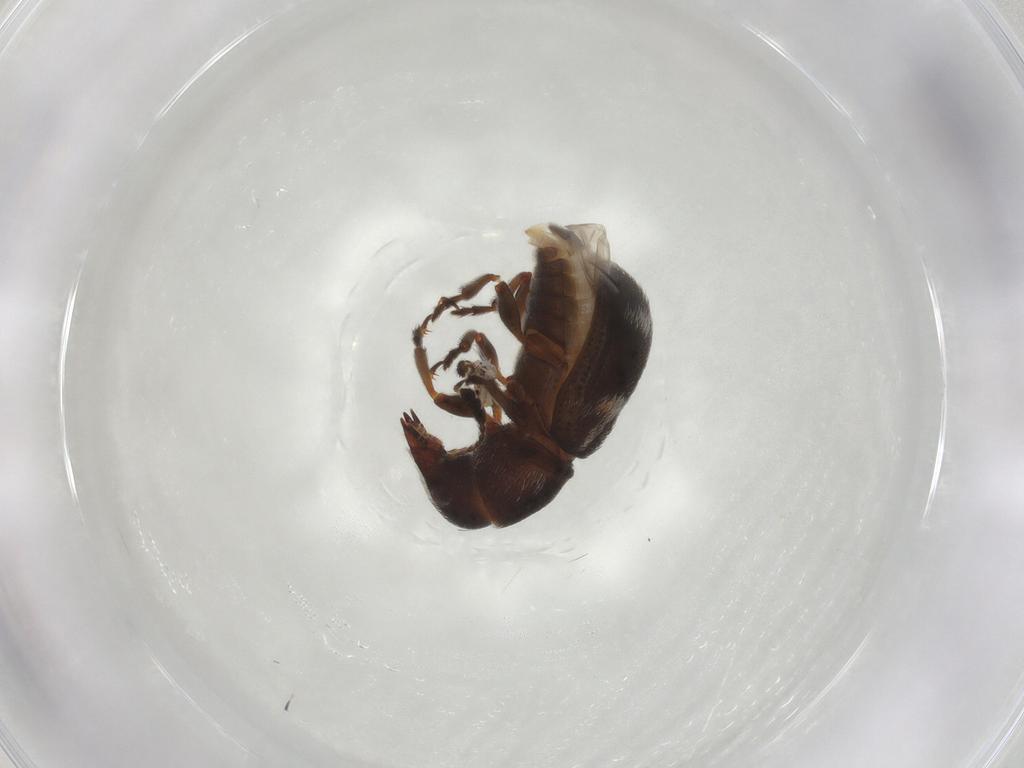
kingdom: Animalia
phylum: Arthropoda
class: Insecta
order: Coleoptera
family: Anthribidae
